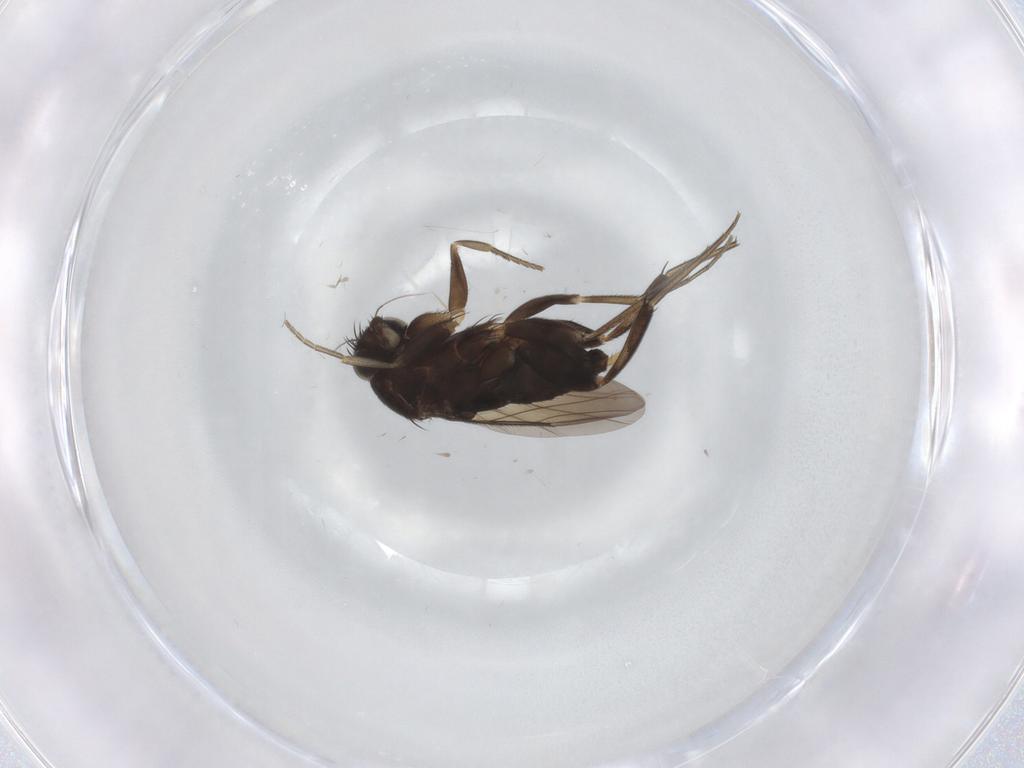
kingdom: Animalia
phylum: Arthropoda
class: Insecta
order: Diptera
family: Phoridae
